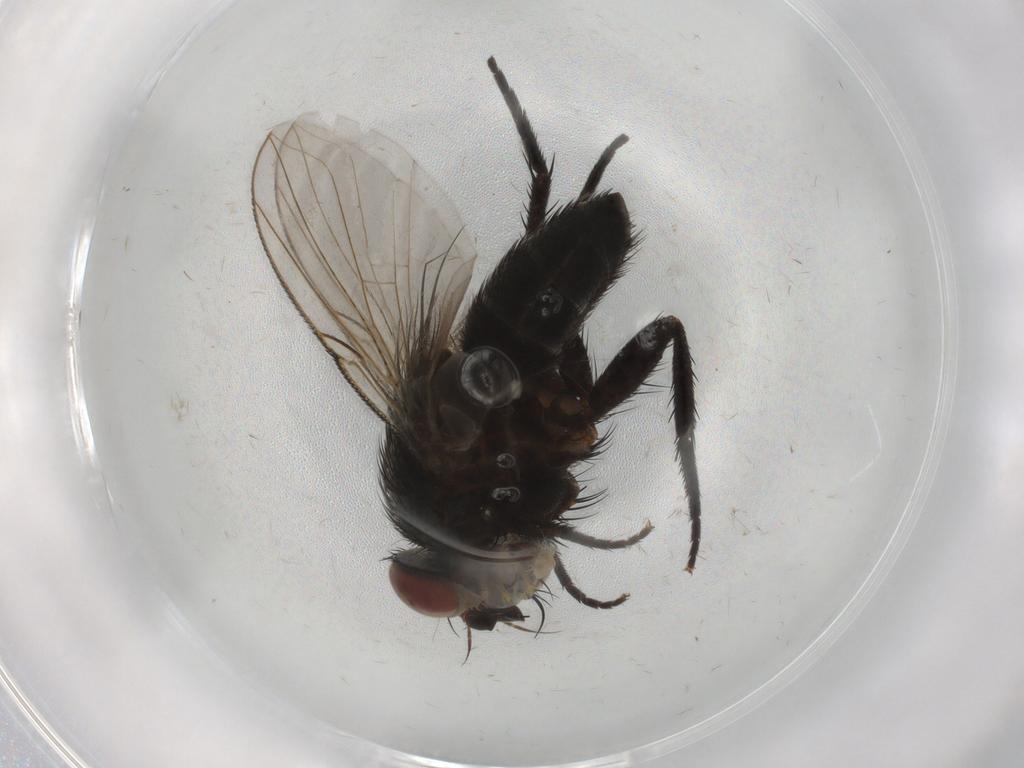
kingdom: Animalia
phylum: Arthropoda
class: Insecta
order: Diptera
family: Tachinidae
